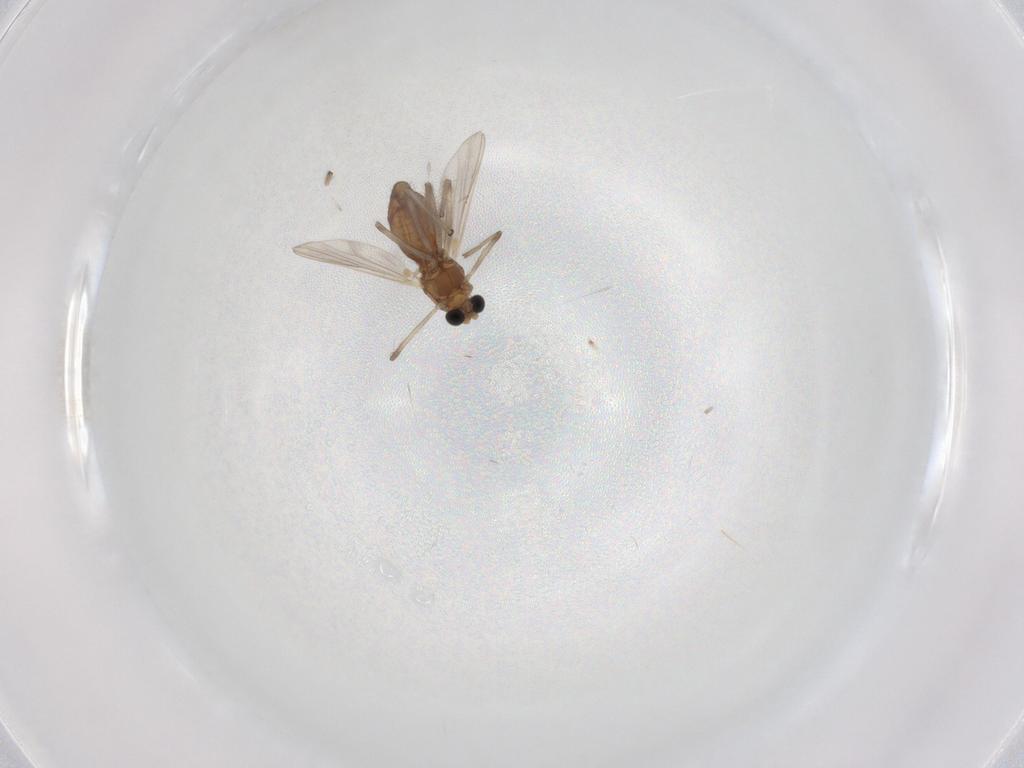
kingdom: Animalia
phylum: Arthropoda
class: Insecta
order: Diptera
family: Chironomidae
